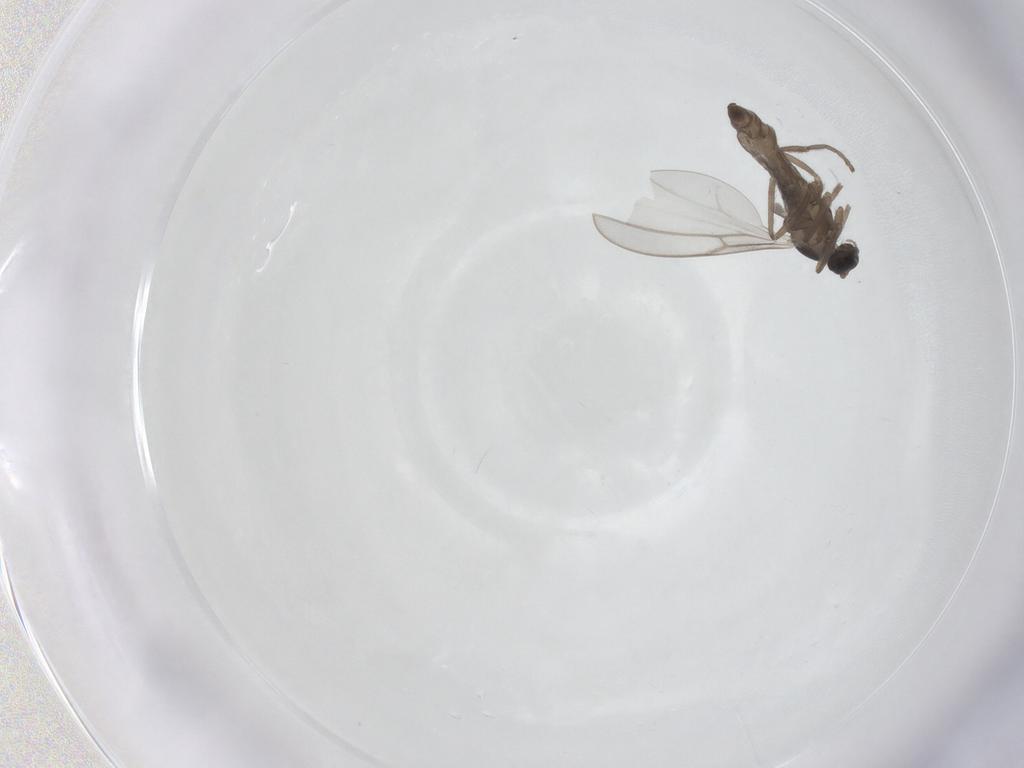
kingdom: Animalia
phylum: Arthropoda
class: Insecta
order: Diptera
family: Cecidomyiidae
